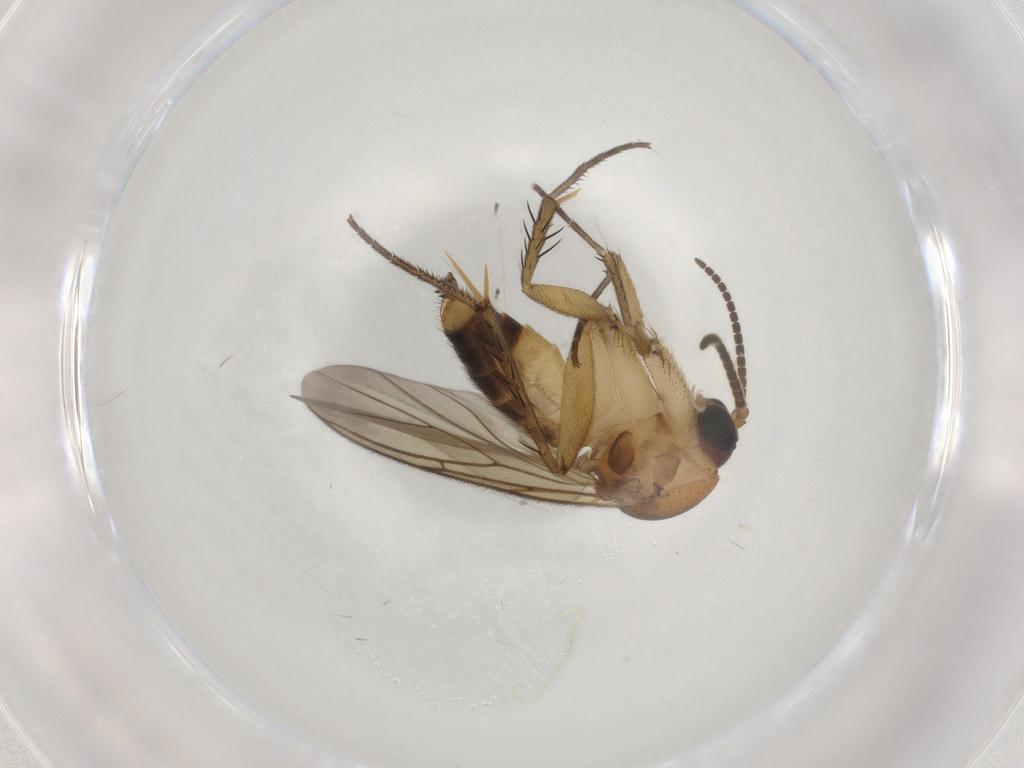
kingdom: Animalia
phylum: Arthropoda
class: Insecta
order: Diptera
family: Mycetophilidae
